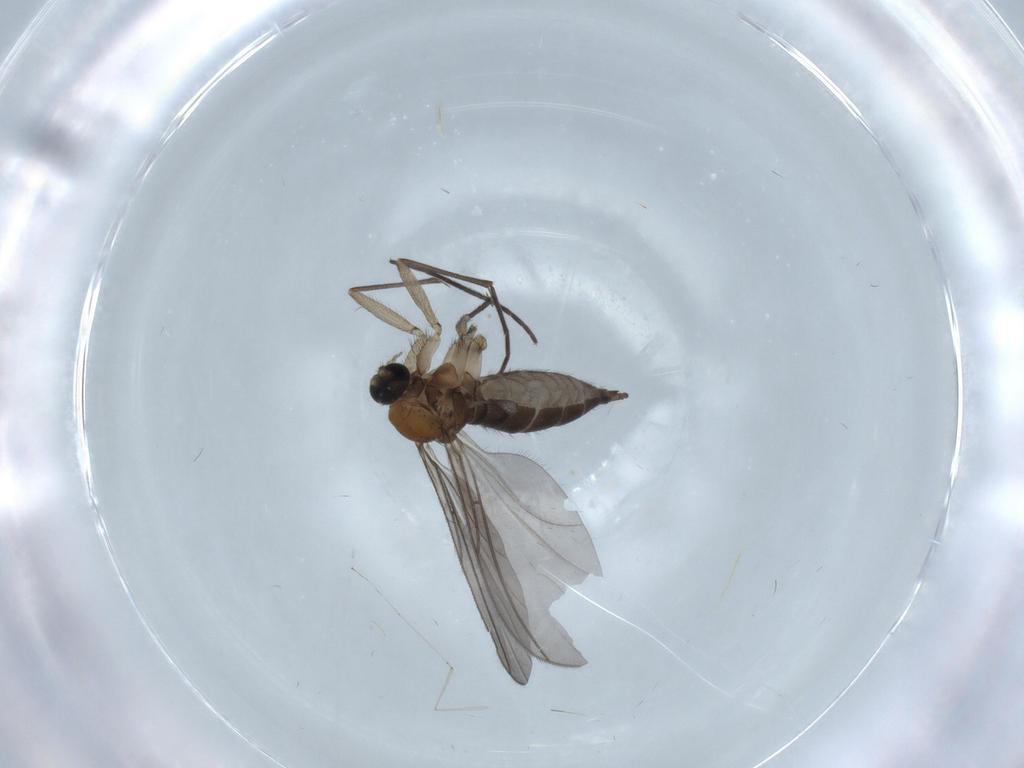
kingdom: Animalia
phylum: Arthropoda
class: Insecta
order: Diptera
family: Sciaridae
